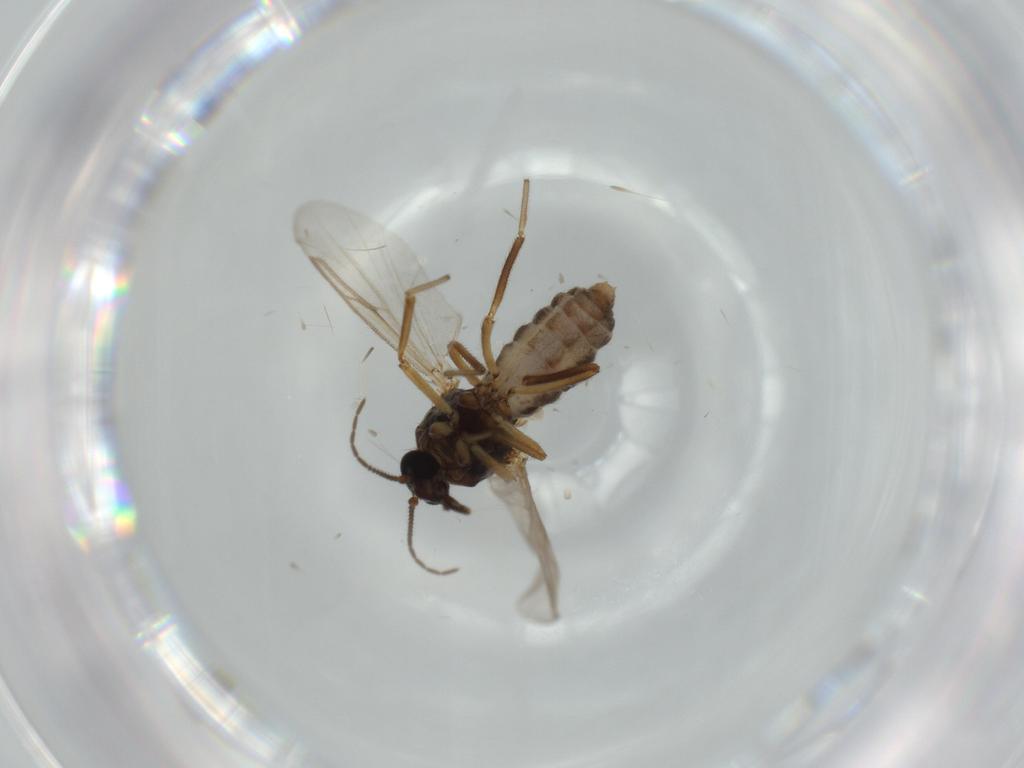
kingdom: Animalia
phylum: Arthropoda
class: Insecta
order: Diptera
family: Ceratopogonidae
